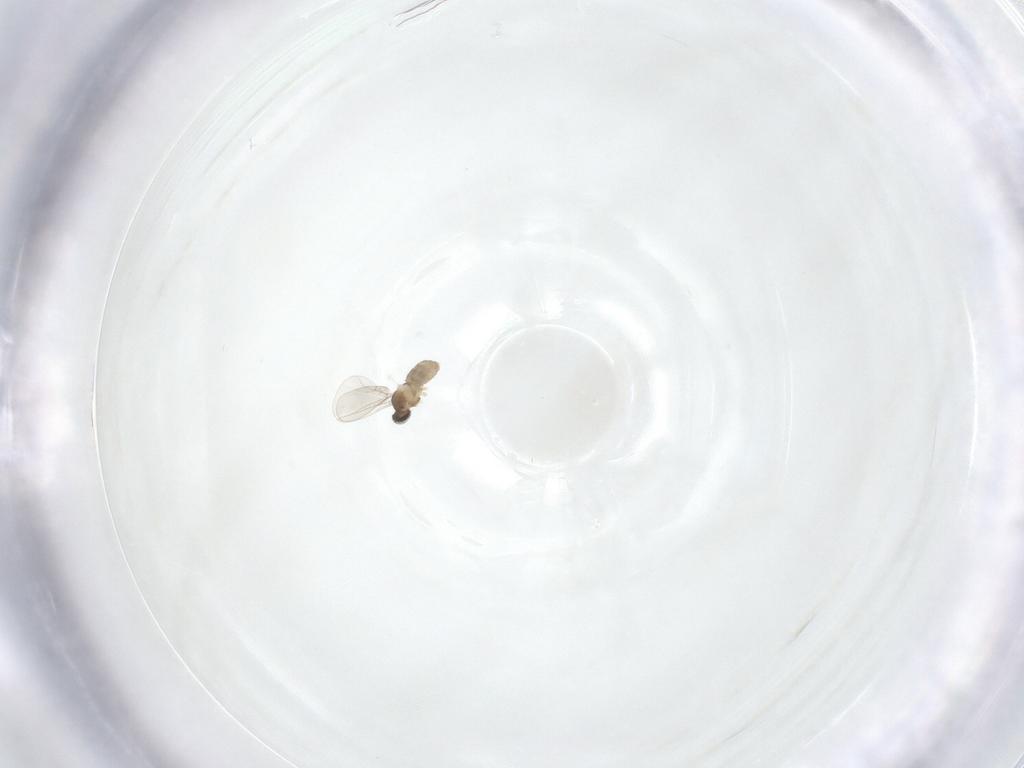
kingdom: Animalia
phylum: Arthropoda
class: Insecta
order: Diptera
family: Cecidomyiidae
